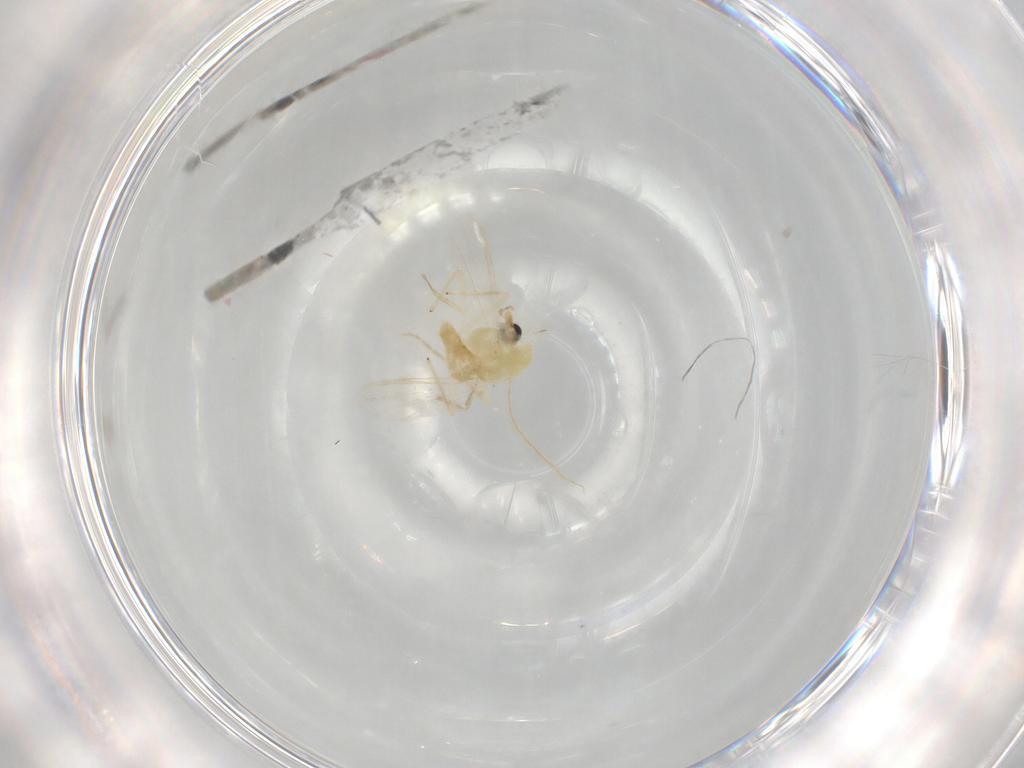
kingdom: Animalia
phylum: Arthropoda
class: Insecta
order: Diptera
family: Chironomidae
